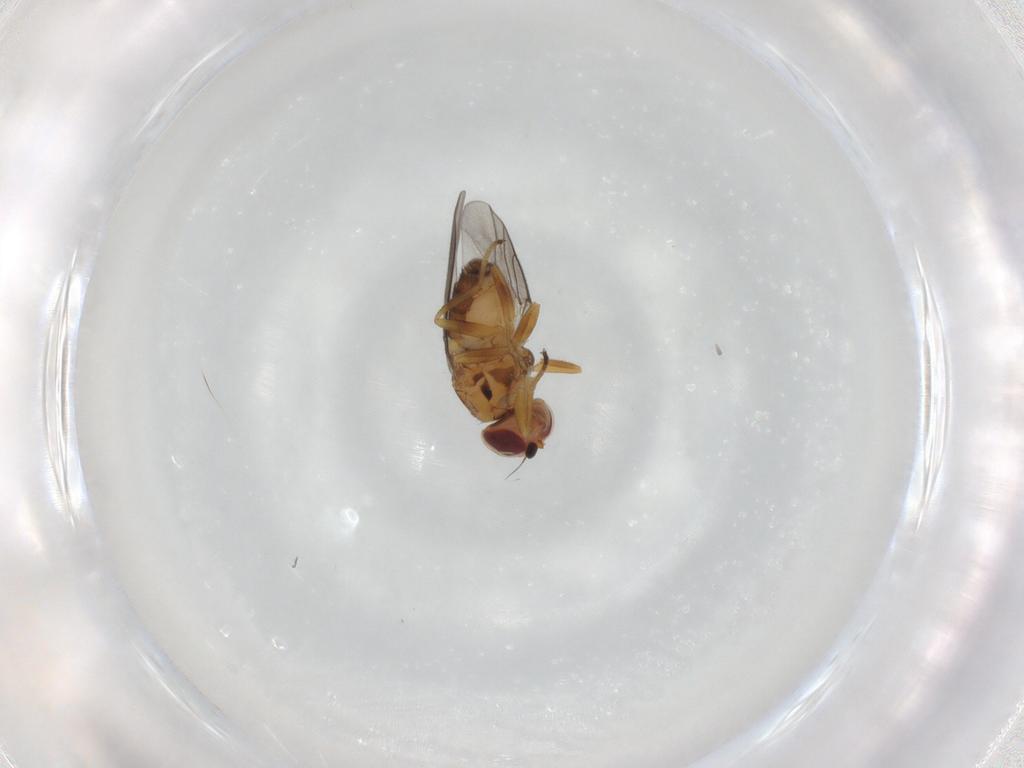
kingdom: Animalia
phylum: Arthropoda
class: Insecta
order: Diptera
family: Chloropidae
